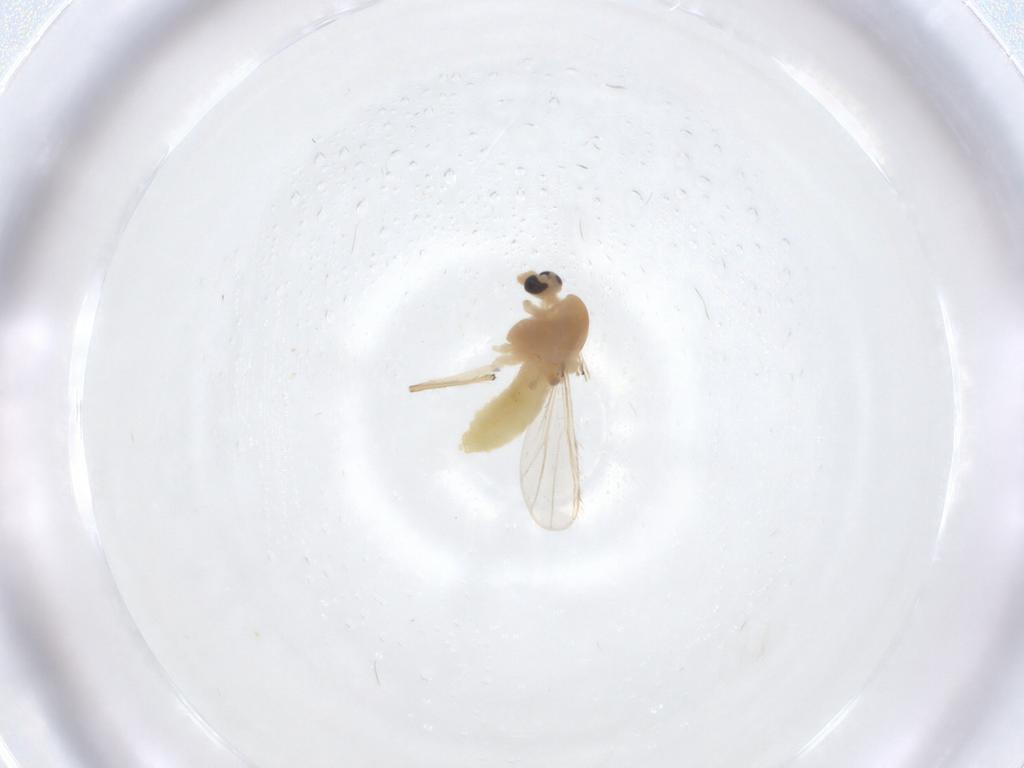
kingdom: Animalia
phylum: Arthropoda
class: Insecta
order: Diptera
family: Chironomidae
